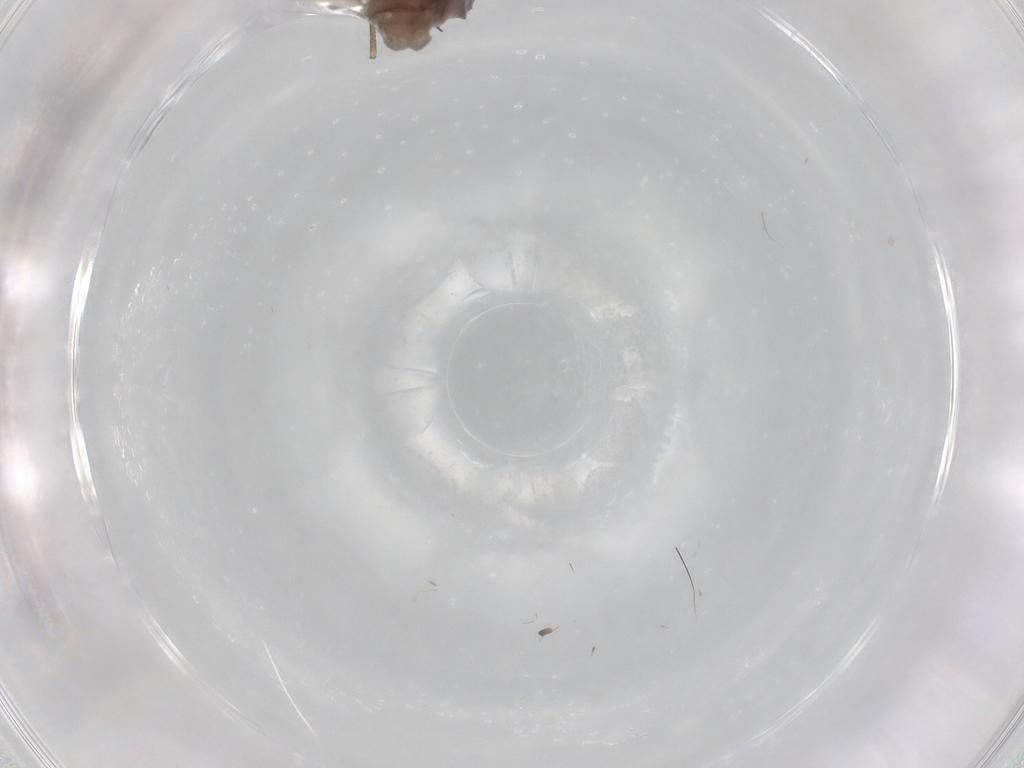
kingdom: Animalia
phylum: Arthropoda
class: Insecta
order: Psocodea
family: Peripsocidae
